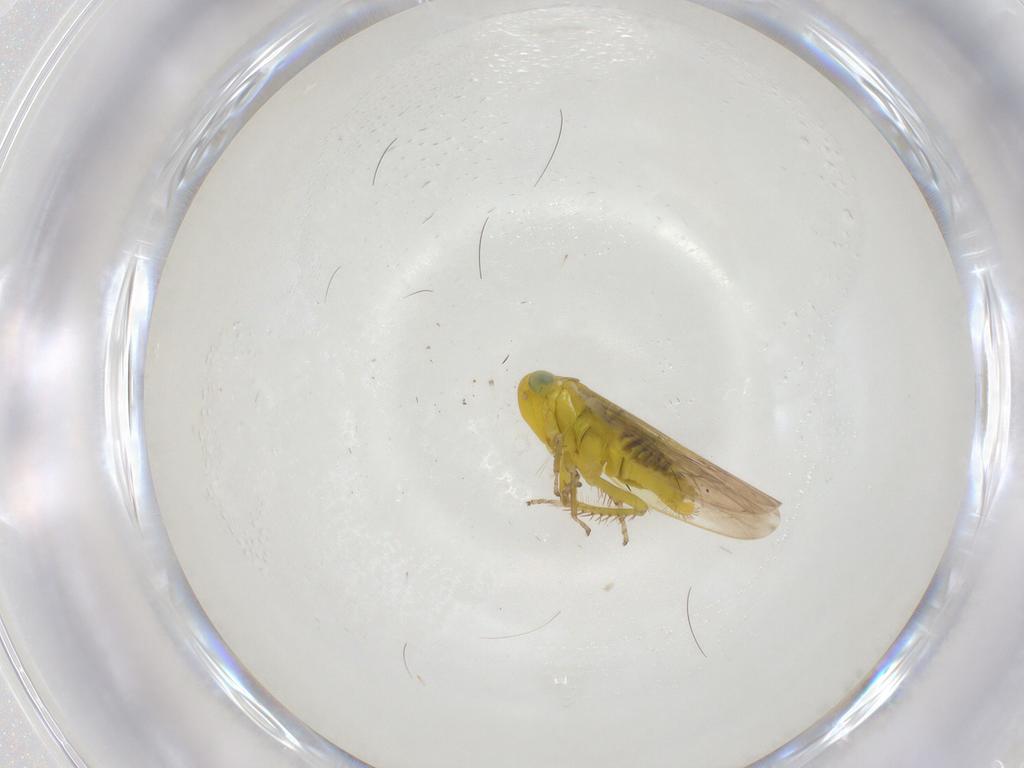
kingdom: Animalia
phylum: Arthropoda
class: Insecta
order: Hemiptera
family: Cicadellidae
